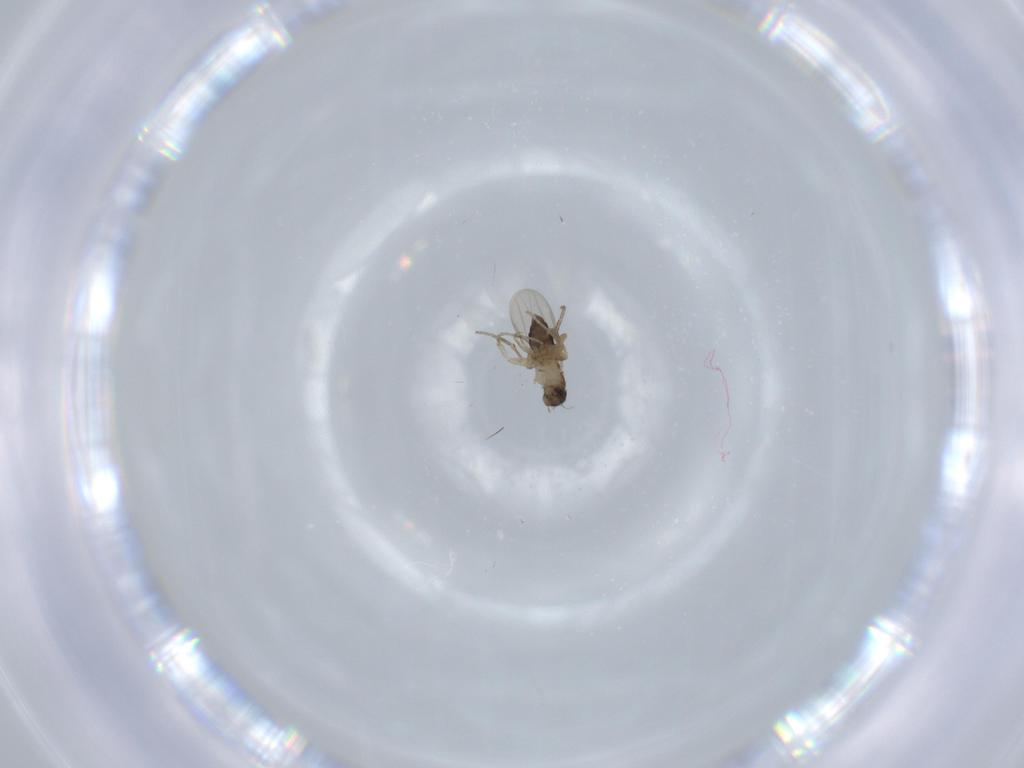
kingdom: Animalia
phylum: Arthropoda
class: Insecta
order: Diptera
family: Phoridae
